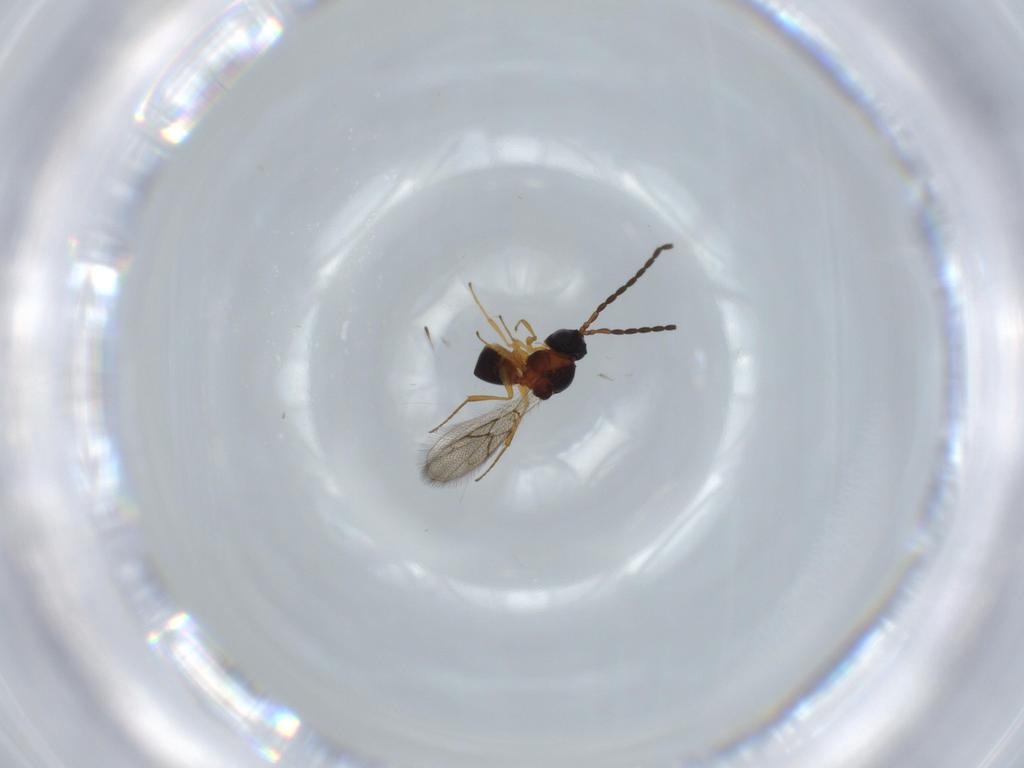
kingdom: Animalia
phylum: Arthropoda
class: Insecta
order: Hymenoptera
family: Figitidae
